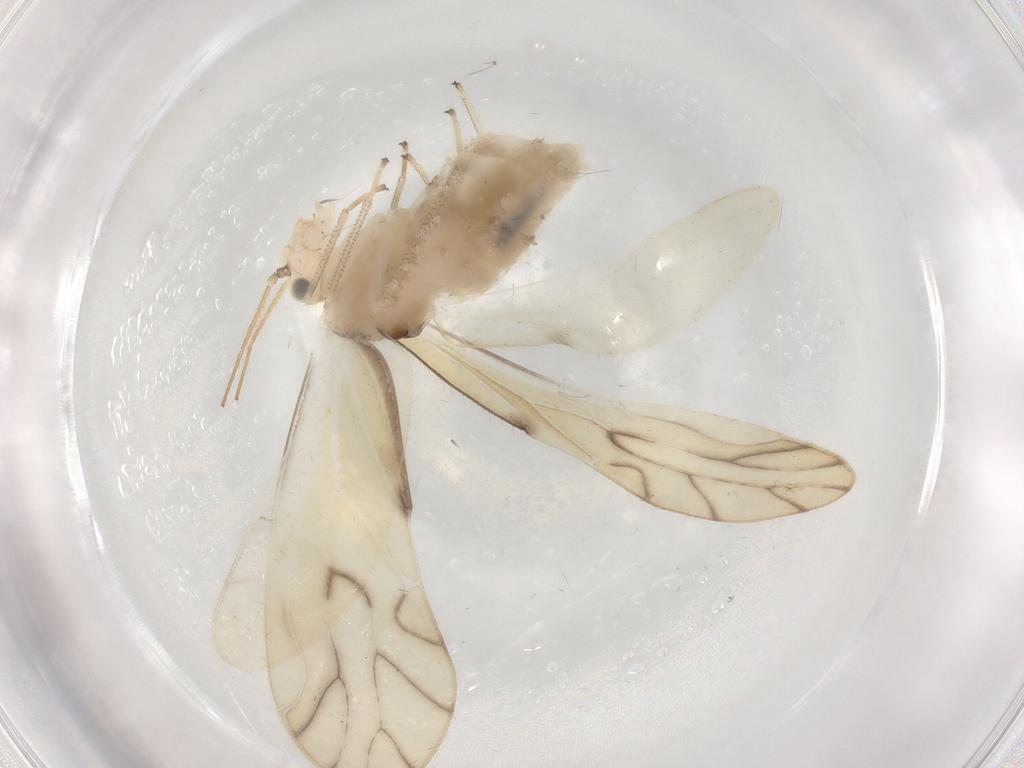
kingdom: Animalia
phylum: Arthropoda
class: Insecta
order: Psocodea
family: Caeciliusidae
